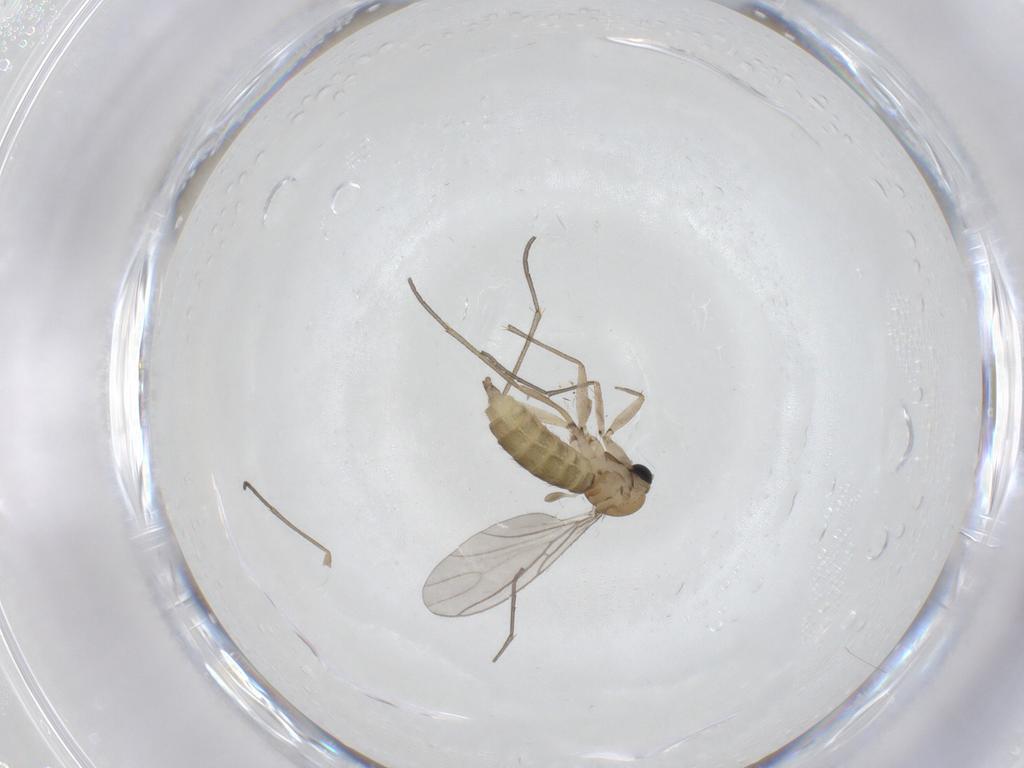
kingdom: Animalia
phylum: Arthropoda
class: Insecta
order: Diptera
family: Sciaridae
